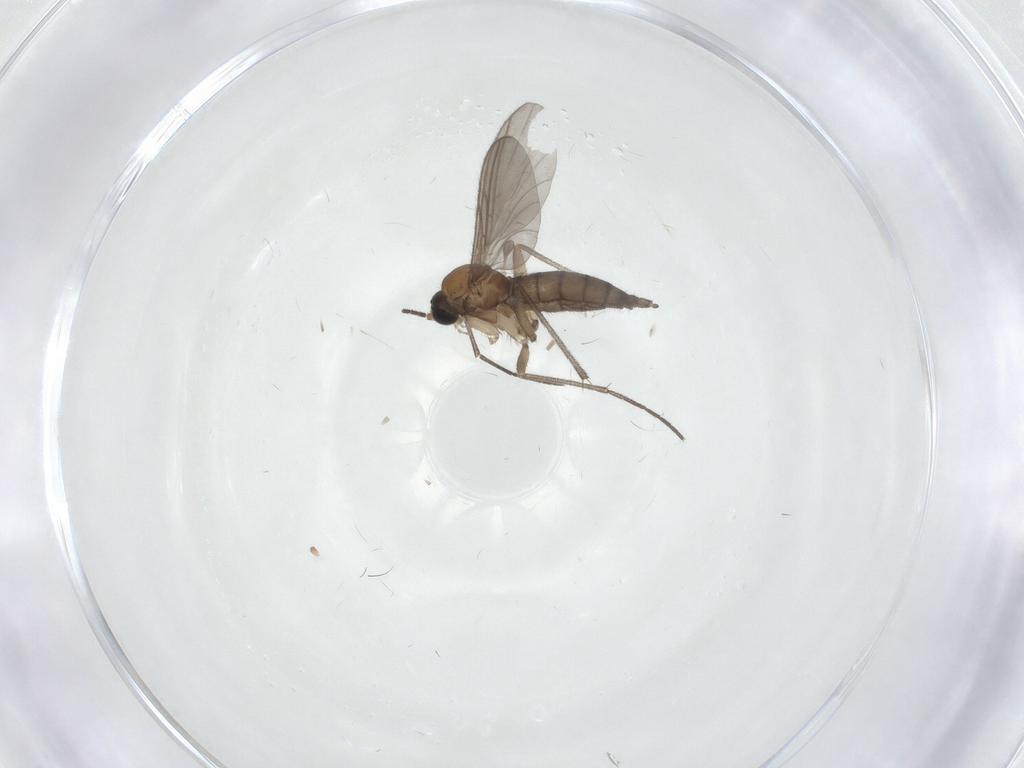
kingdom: Animalia
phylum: Arthropoda
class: Insecta
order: Diptera
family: Sciaridae
